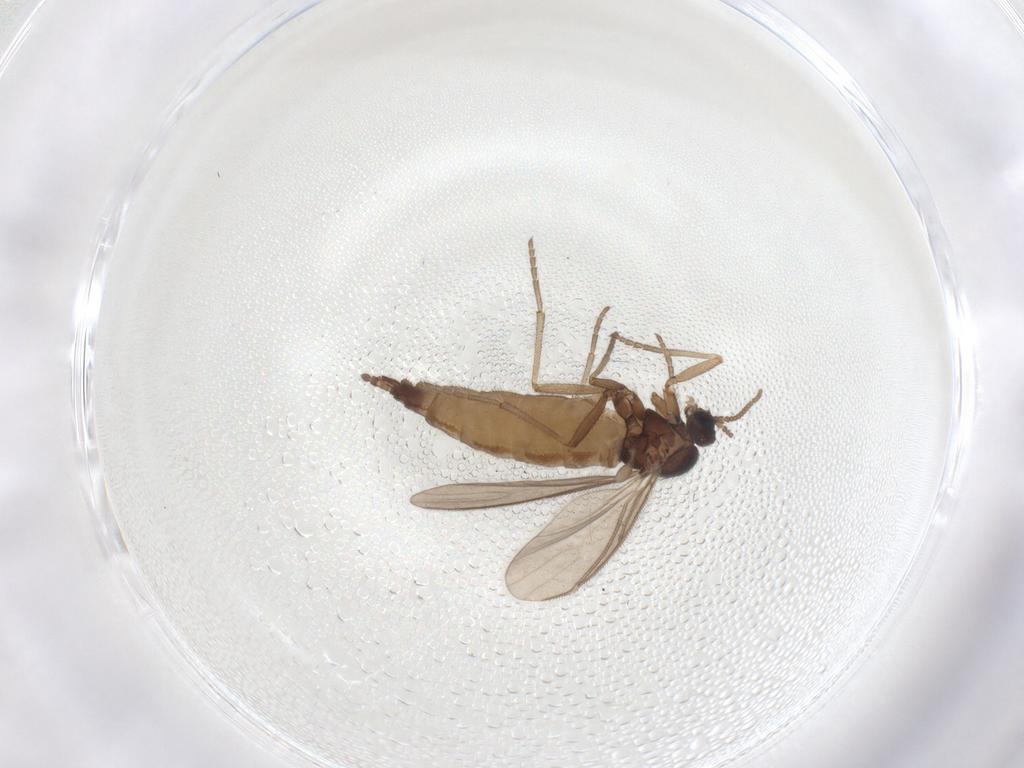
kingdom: Animalia
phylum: Arthropoda
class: Insecta
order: Diptera
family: Sciaridae
